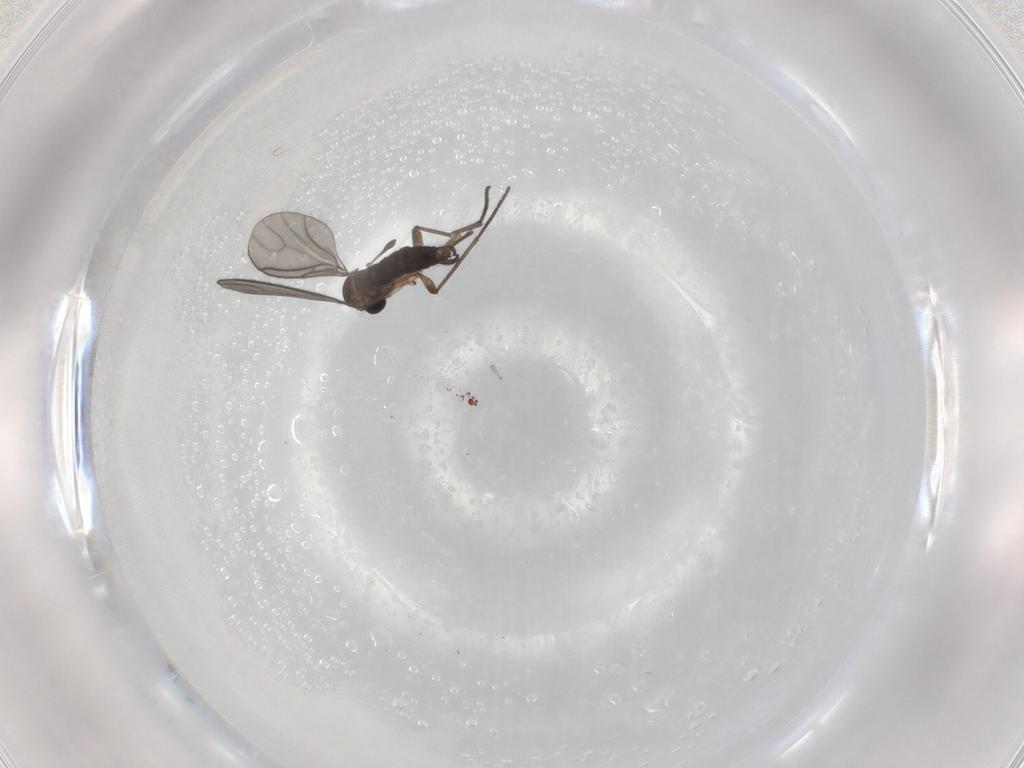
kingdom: Animalia
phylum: Arthropoda
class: Insecta
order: Diptera
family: Sciaridae
